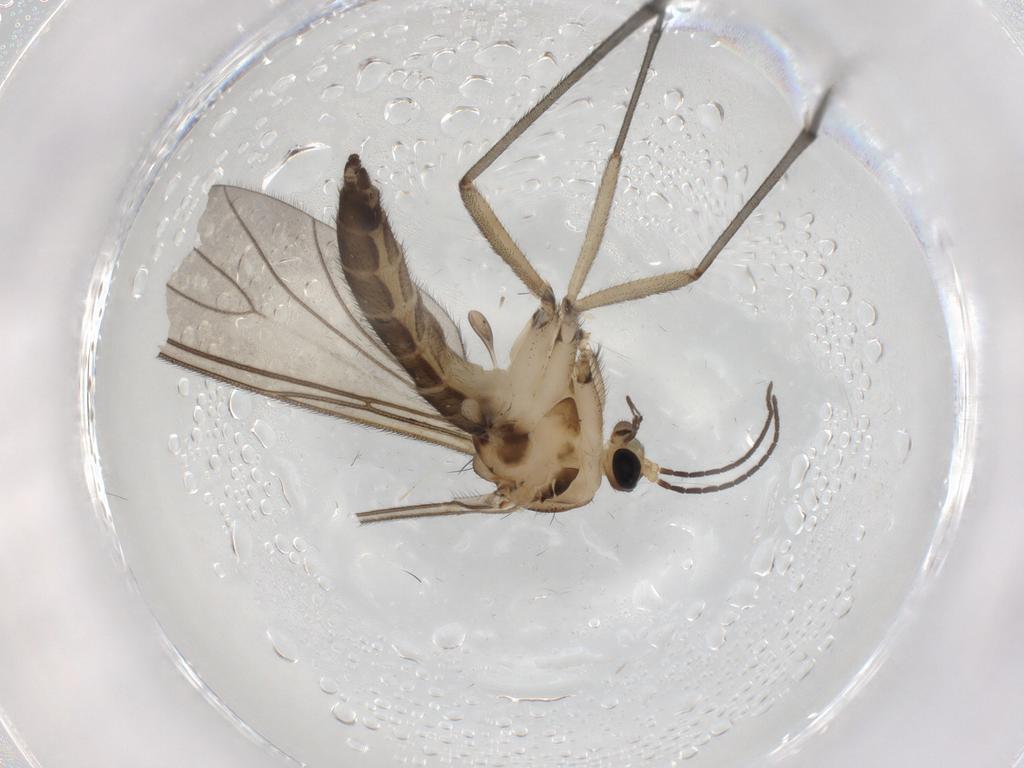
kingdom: Animalia
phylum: Arthropoda
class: Insecta
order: Diptera
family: Sciaridae
